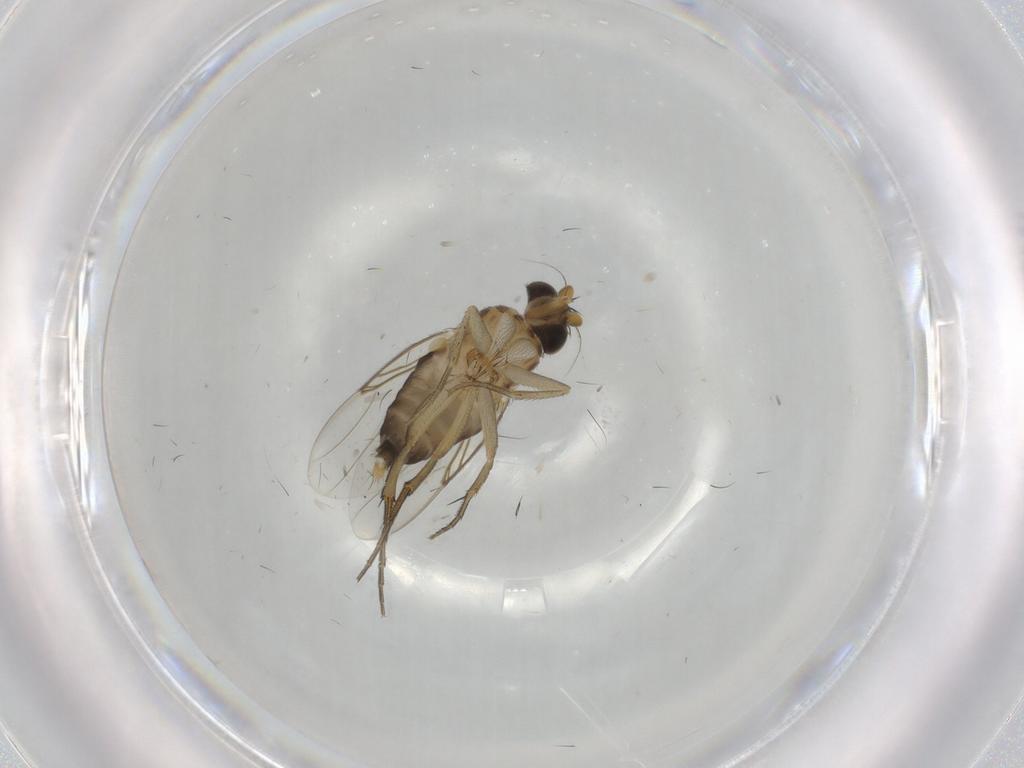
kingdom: Animalia
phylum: Arthropoda
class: Insecta
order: Diptera
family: Phoridae
